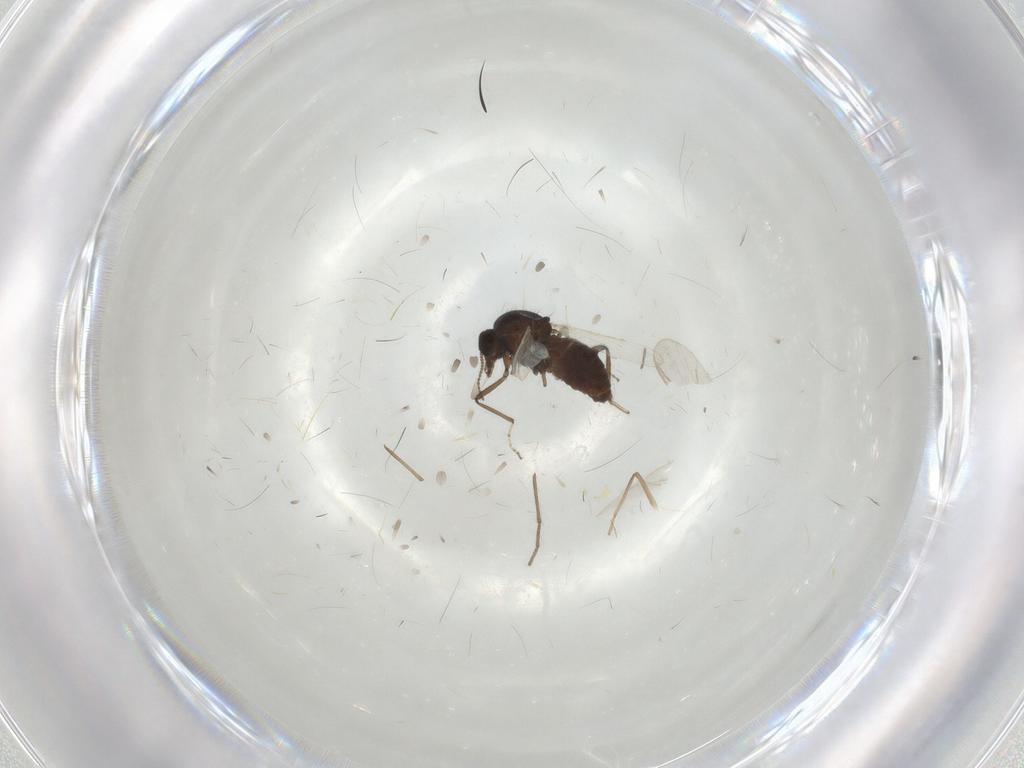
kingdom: Animalia
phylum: Arthropoda
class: Insecta
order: Diptera
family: Ceratopogonidae
